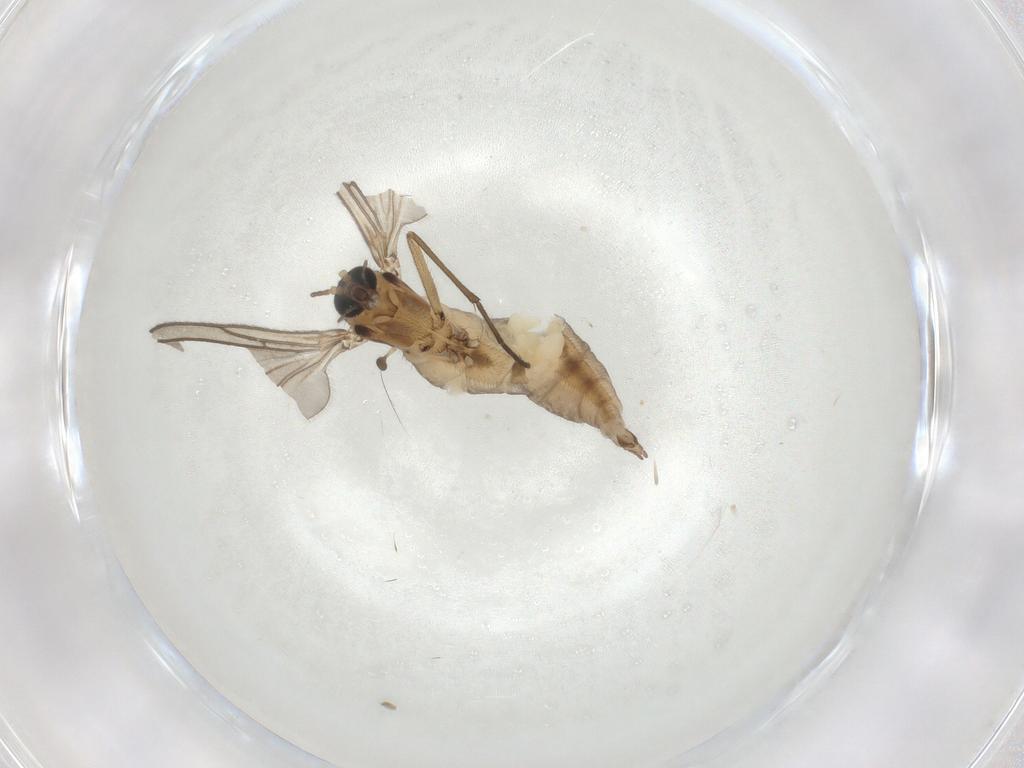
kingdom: Animalia
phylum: Arthropoda
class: Insecta
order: Diptera
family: Sciaridae
